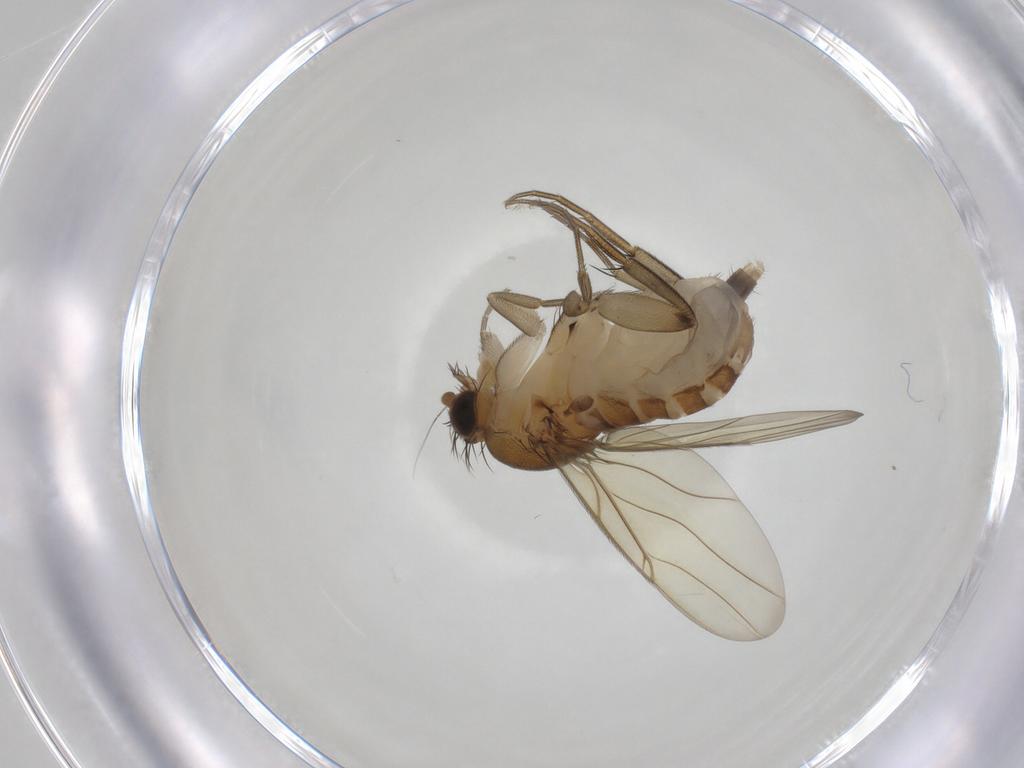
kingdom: Animalia
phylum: Arthropoda
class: Insecta
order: Diptera
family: Phoridae
